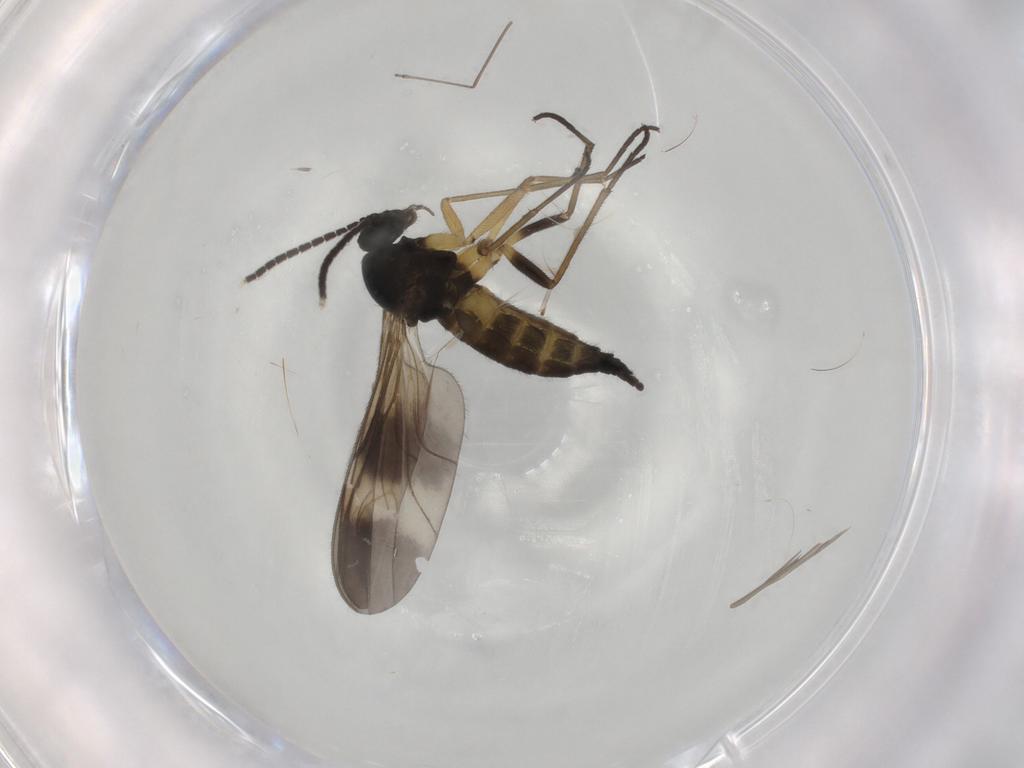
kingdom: Animalia
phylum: Arthropoda
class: Insecta
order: Diptera
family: Sciaridae
